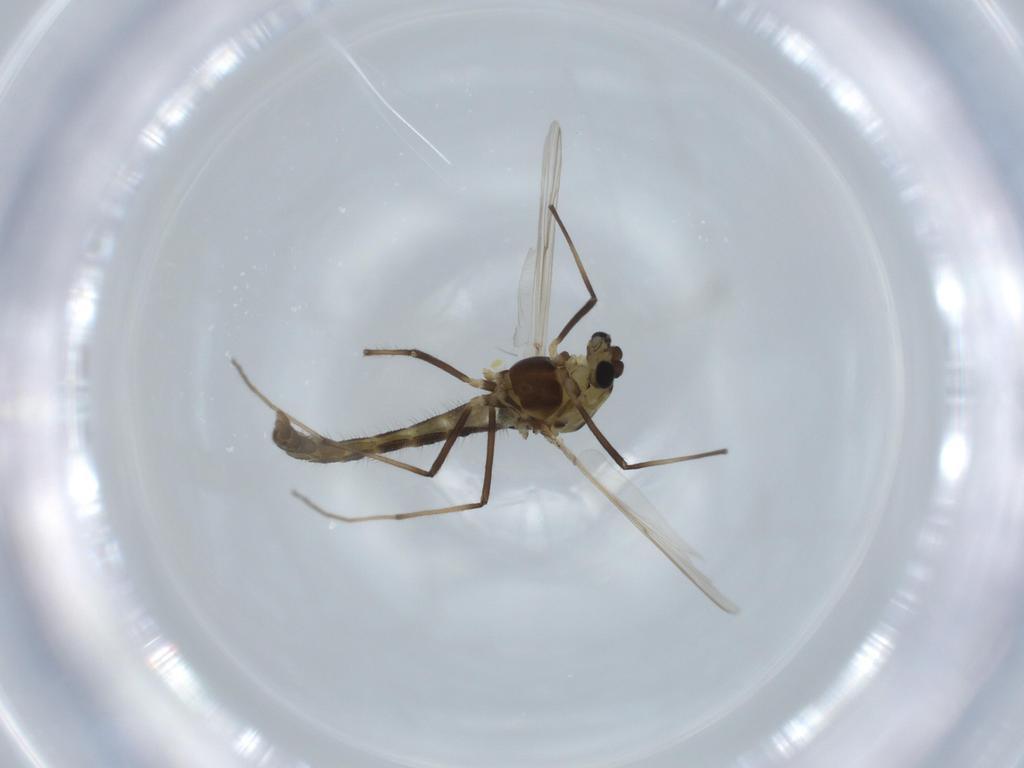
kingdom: Animalia
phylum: Arthropoda
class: Insecta
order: Diptera
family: Chironomidae
